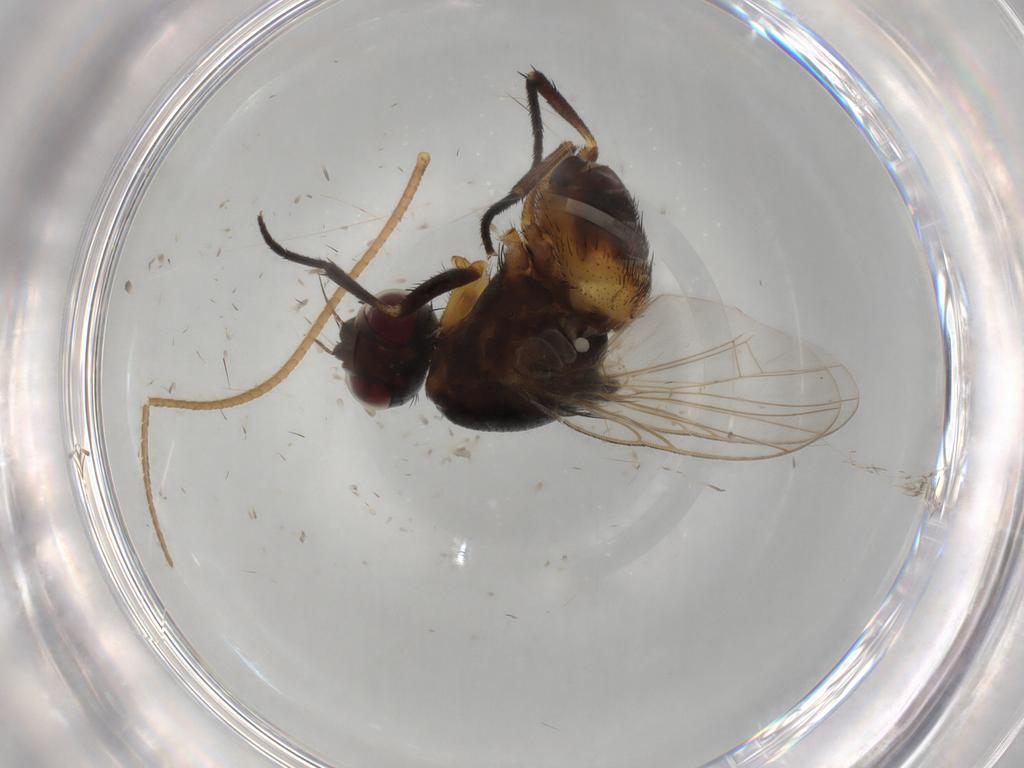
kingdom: Animalia
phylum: Arthropoda
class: Insecta
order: Diptera
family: Muscidae
